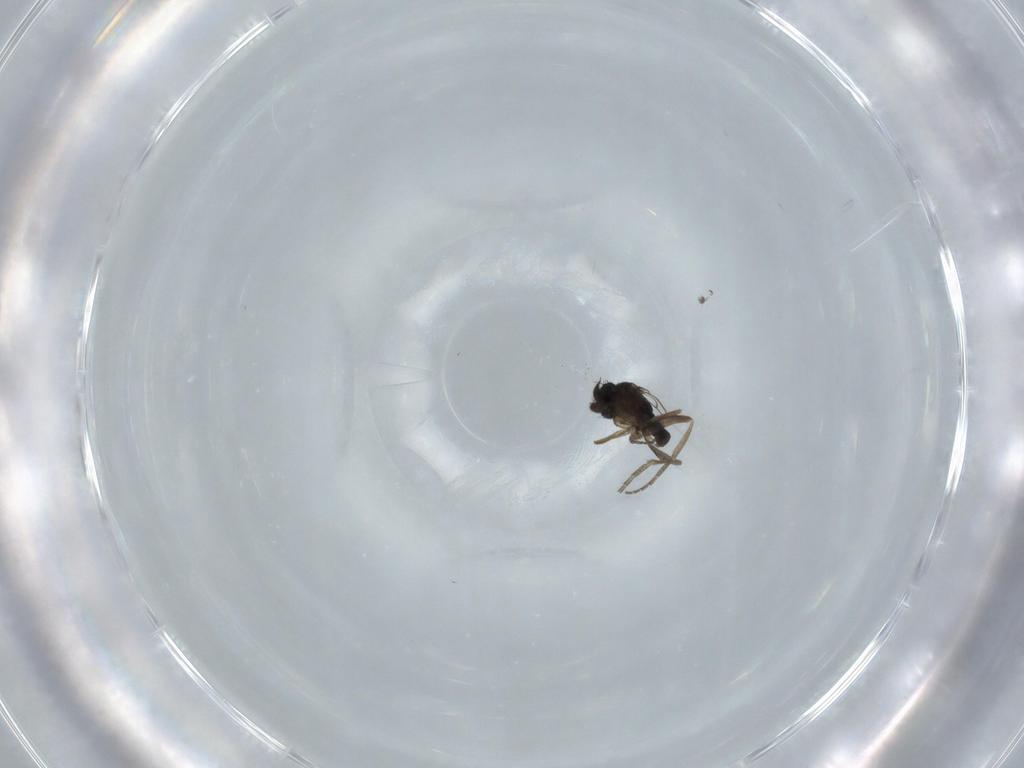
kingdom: Animalia
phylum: Arthropoda
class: Insecta
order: Diptera
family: Phoridae
